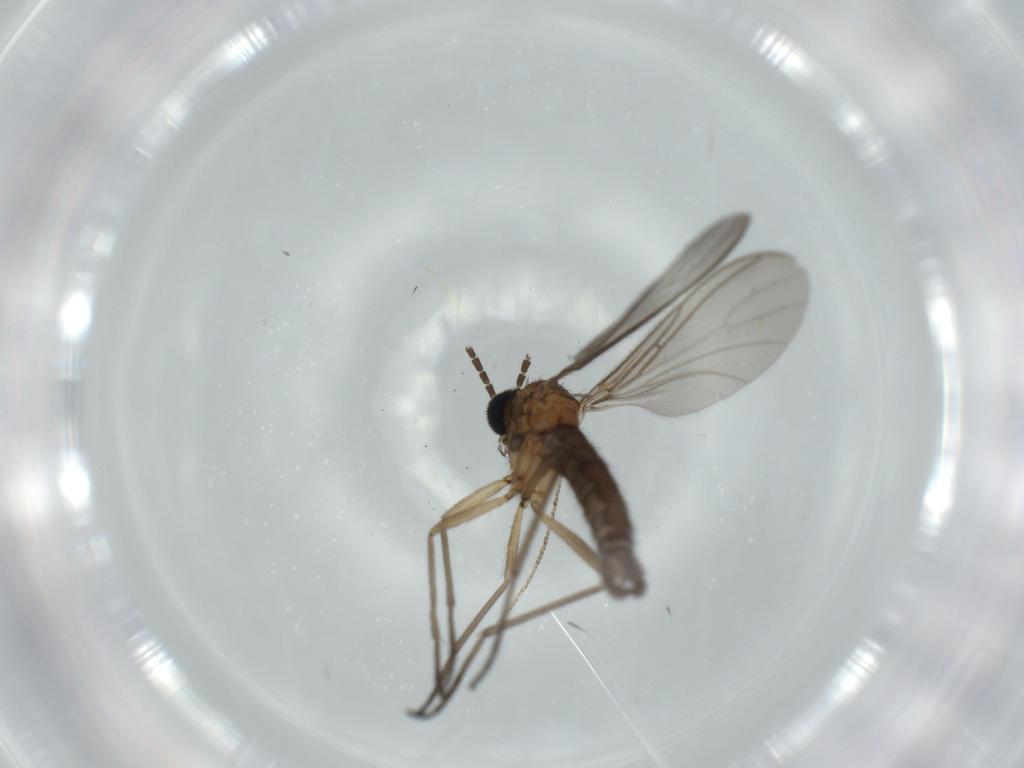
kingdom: Animalia
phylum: Arthropoda
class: Insecta
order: Diptera
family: Sciaridae
